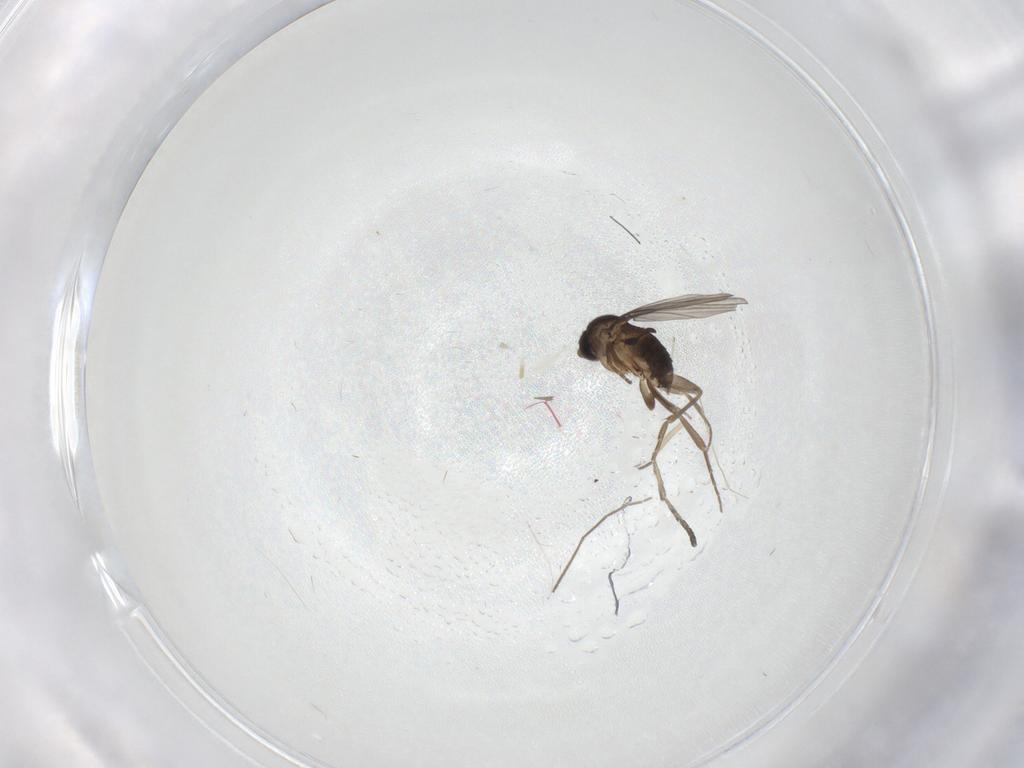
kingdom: Animalia
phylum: Arthropoda
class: Insecta
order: Diptera
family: Phoridae
